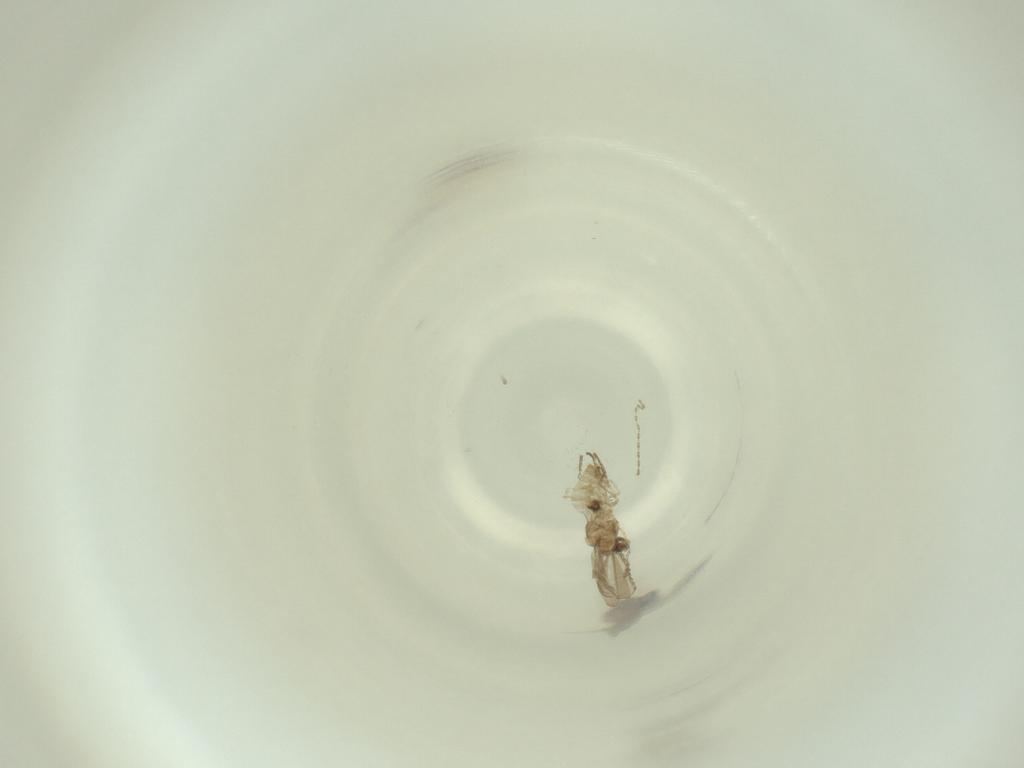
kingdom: Animalia
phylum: Arthropoda
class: Insecta
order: Diptera
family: Cecidomyiidae
